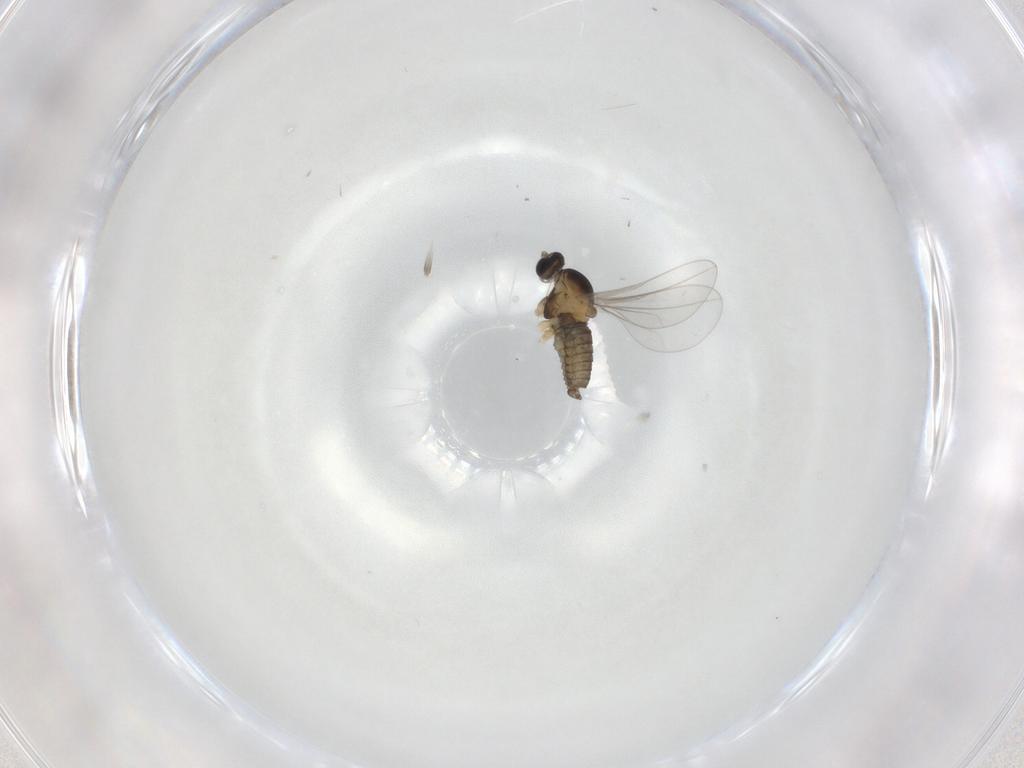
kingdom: Animalia
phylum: Arthropoda
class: Insecta
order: Diptera
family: Cecidomyiidae
